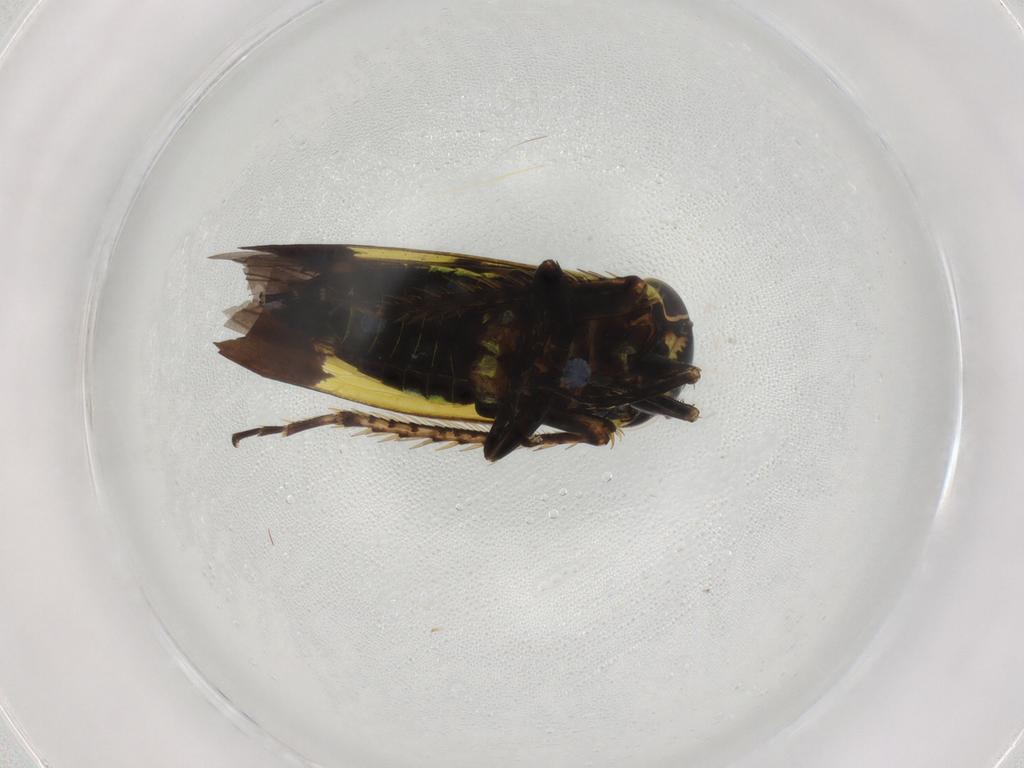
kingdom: Animalia
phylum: Arthropoda
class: Insecta
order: Hemiptera
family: Cicadellidae
